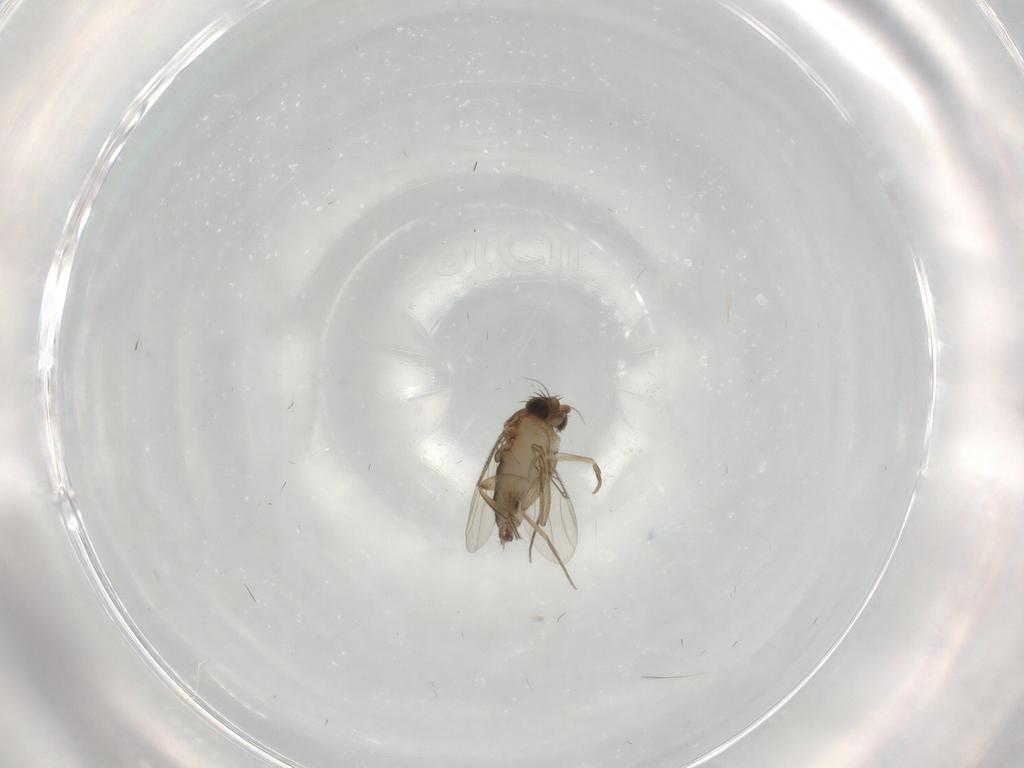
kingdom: Animalia
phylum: Arthropoda
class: Insecta
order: Diptera
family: Phoridae
